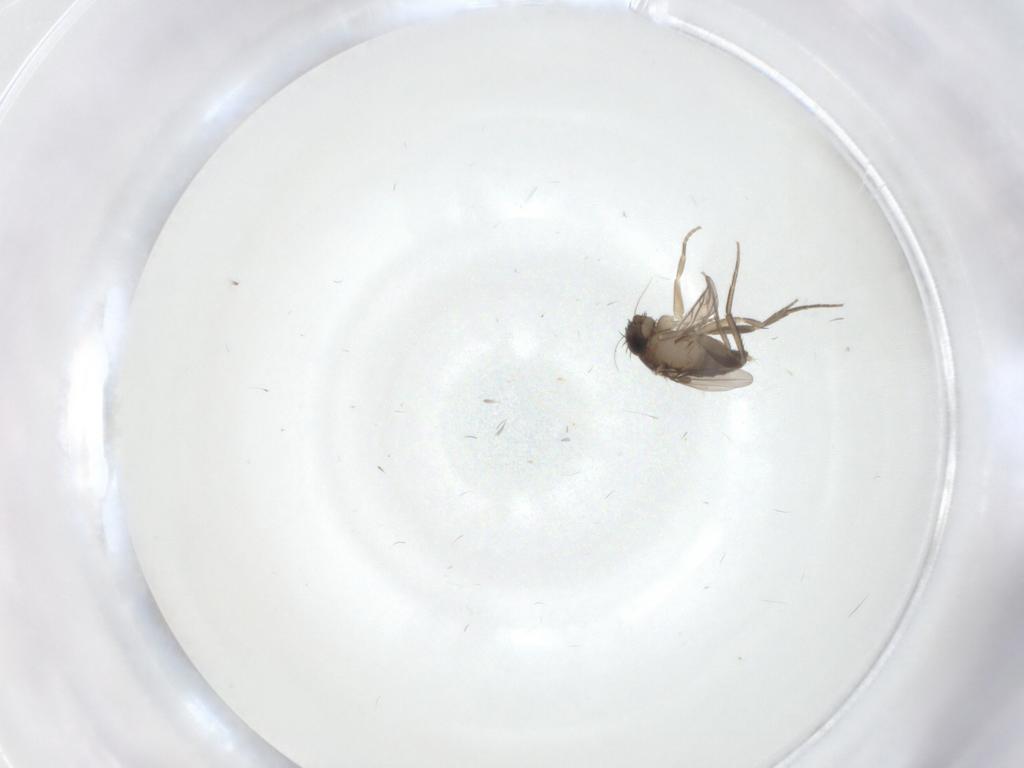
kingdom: Animalia
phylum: Arthropoda
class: Insecta
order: Diptera
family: Phoridae
